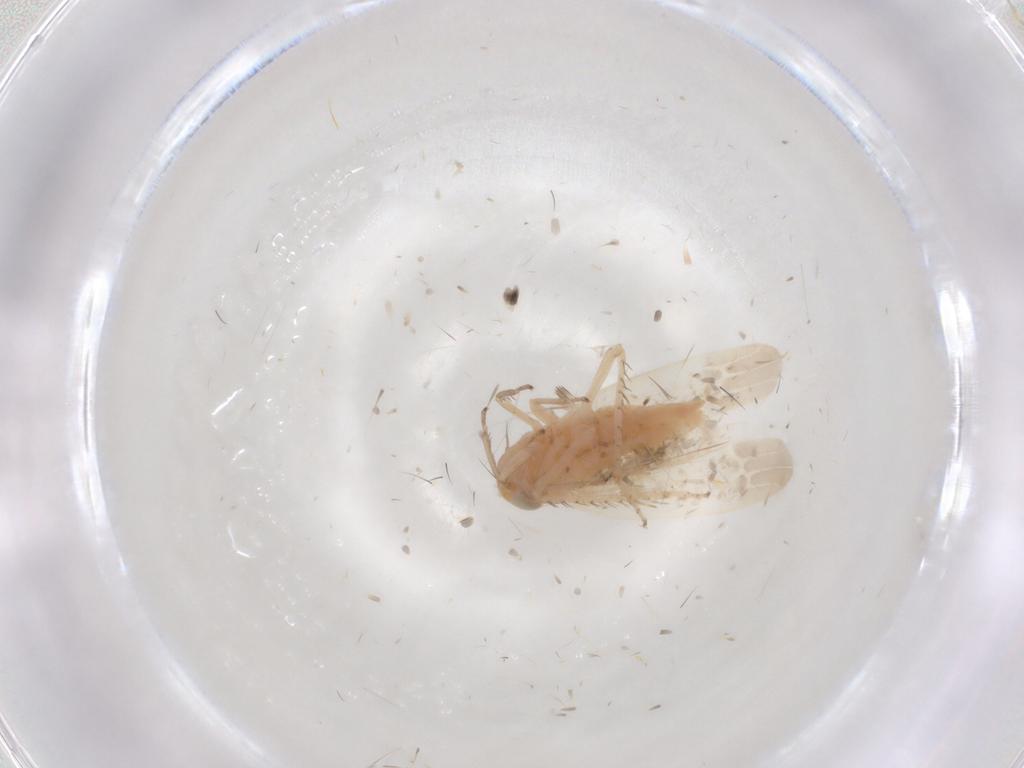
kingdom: Animalia
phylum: Arthropoda
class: Insecta
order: Hemiptera
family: Cicadellidae
